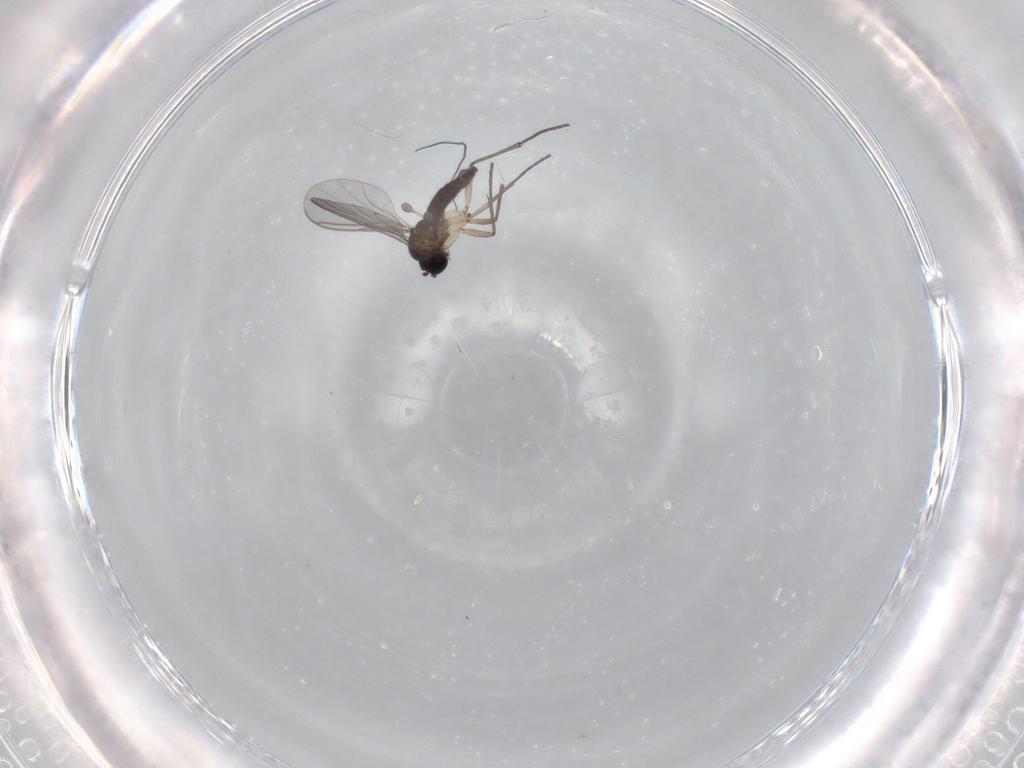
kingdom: Animalia
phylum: Arthropoda
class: Insecta
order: Diptera
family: Sciaridae
